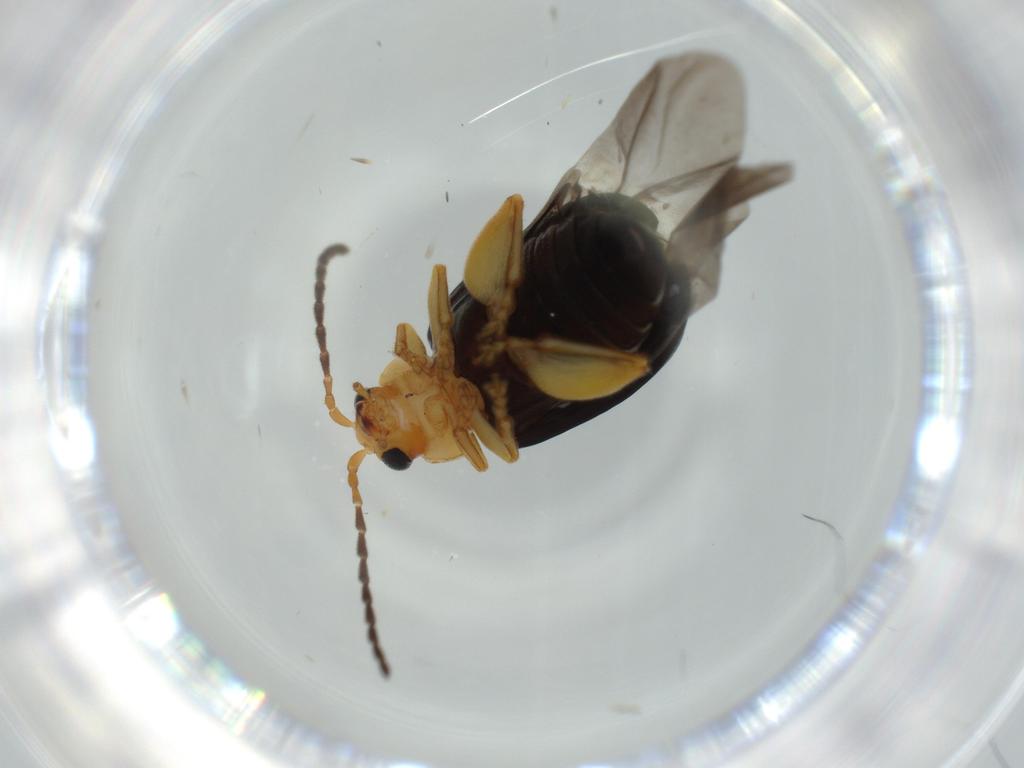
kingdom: Animalia
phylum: Arthropoda
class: Insecta
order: Coleoptera
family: Chrysomelidae
